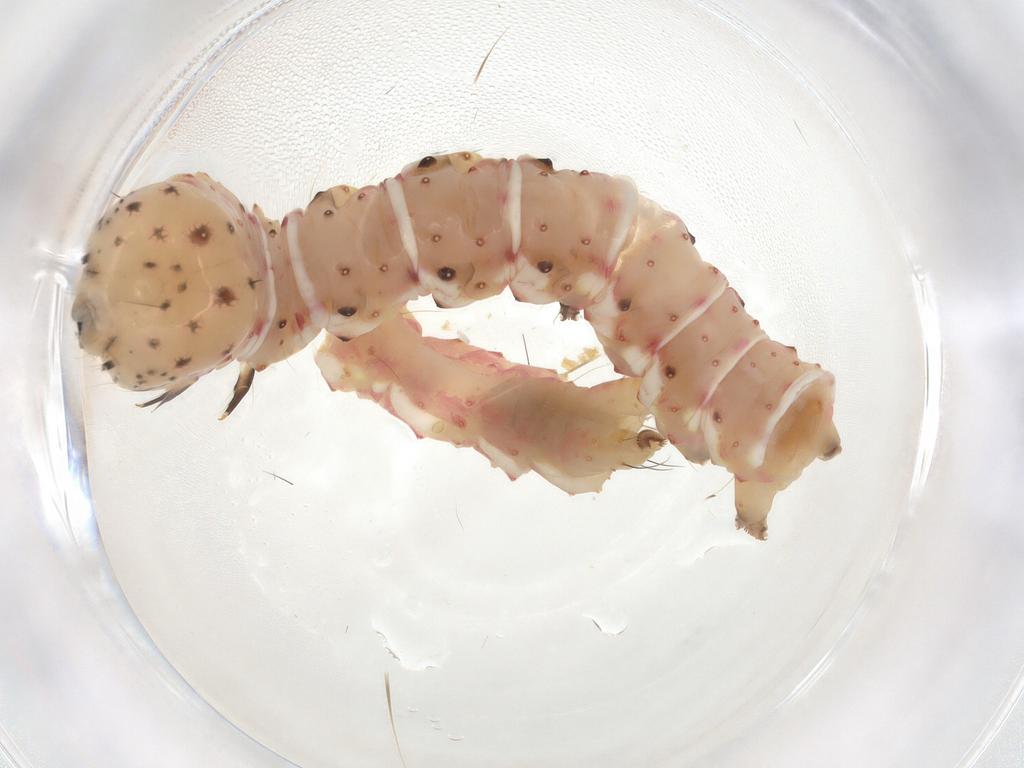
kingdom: Animalia
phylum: Arthropoda
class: Insecta
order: Lepidoptera
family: Erebidae
